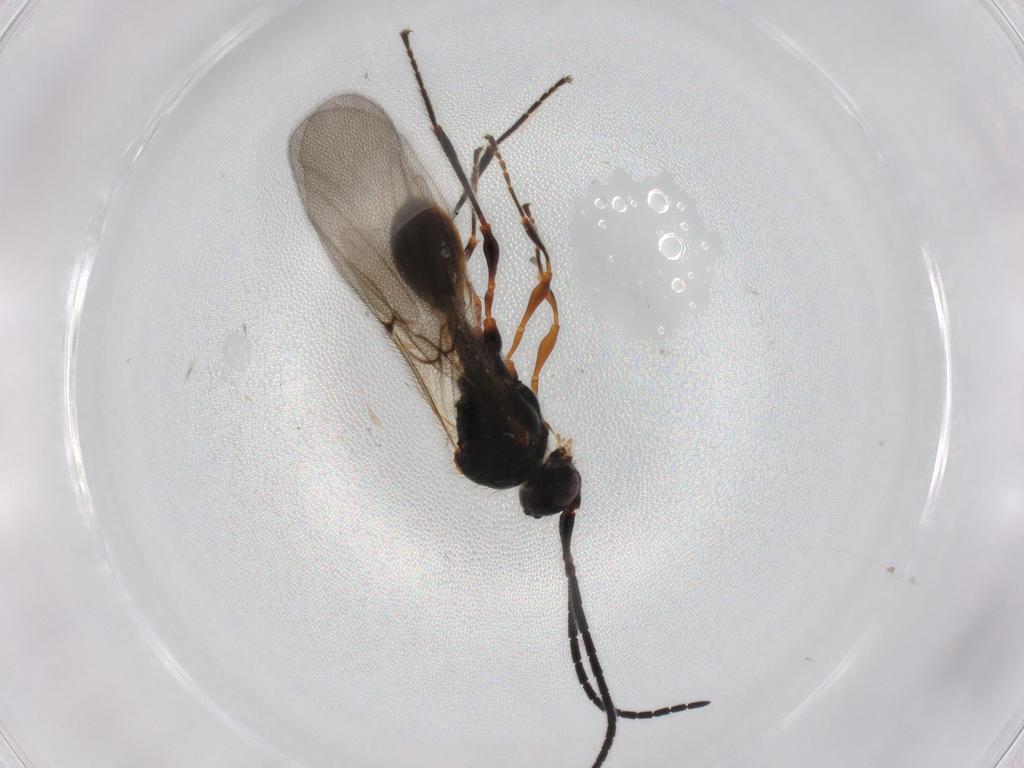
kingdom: Animalia
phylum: Arthropoda
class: Insecta
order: Hymenoptera
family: Diapriidae
